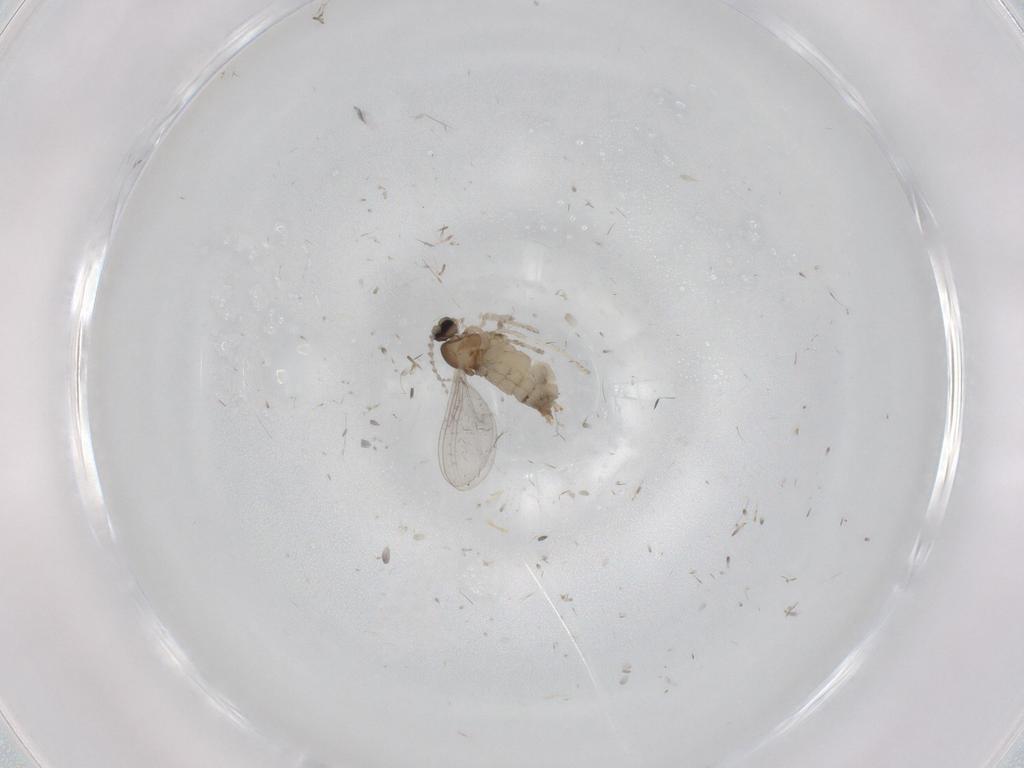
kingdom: Animalia
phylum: Arthropoda
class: Insecta
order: Diptera
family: Cecidomyiidae
